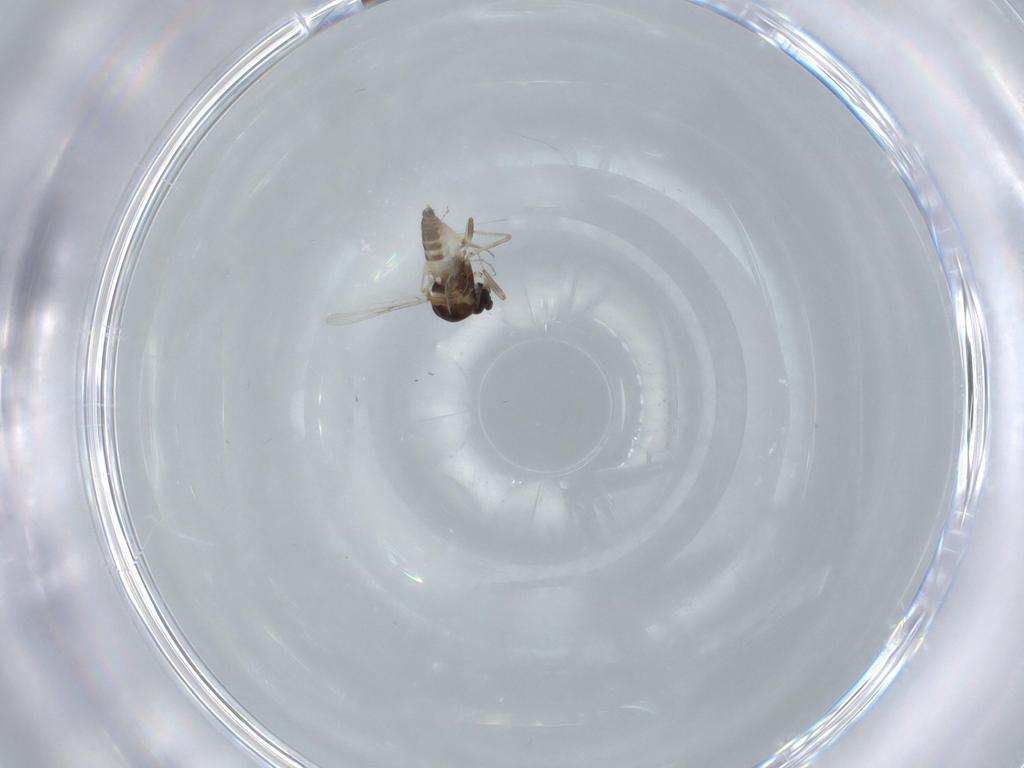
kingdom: Animalia
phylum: Arthropoda
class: Insecta
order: Diptera
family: Ceratopogonidae
